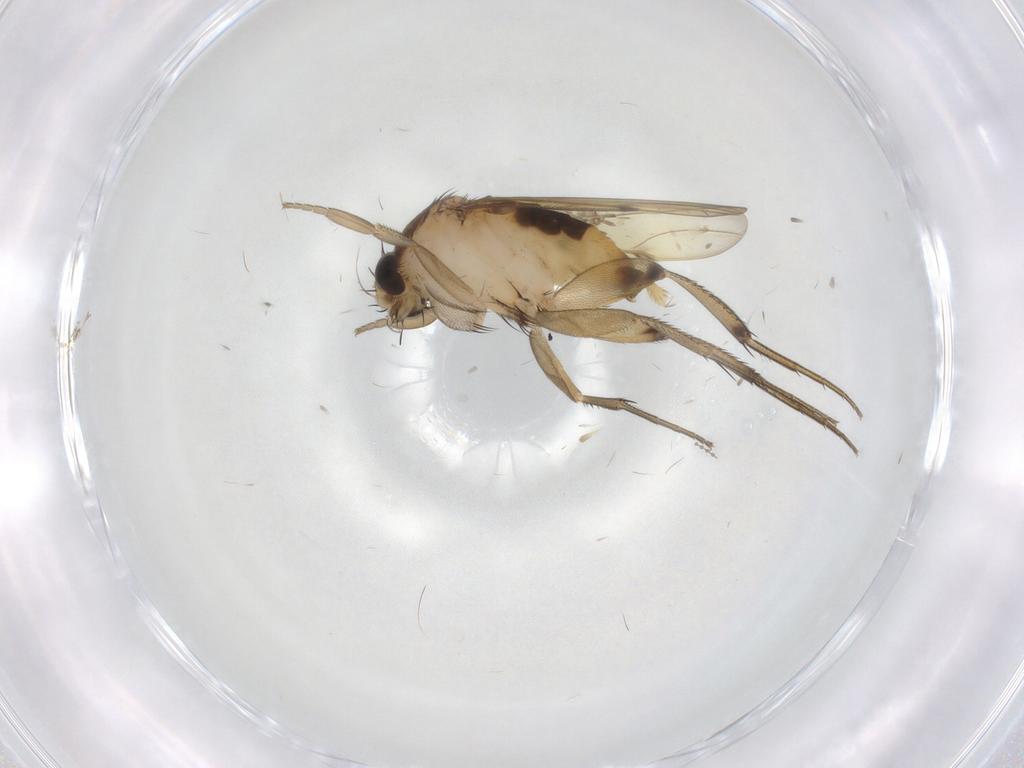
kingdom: Animalia
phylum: Arthropoda
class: Insecta
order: Diptera
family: Phoridae
